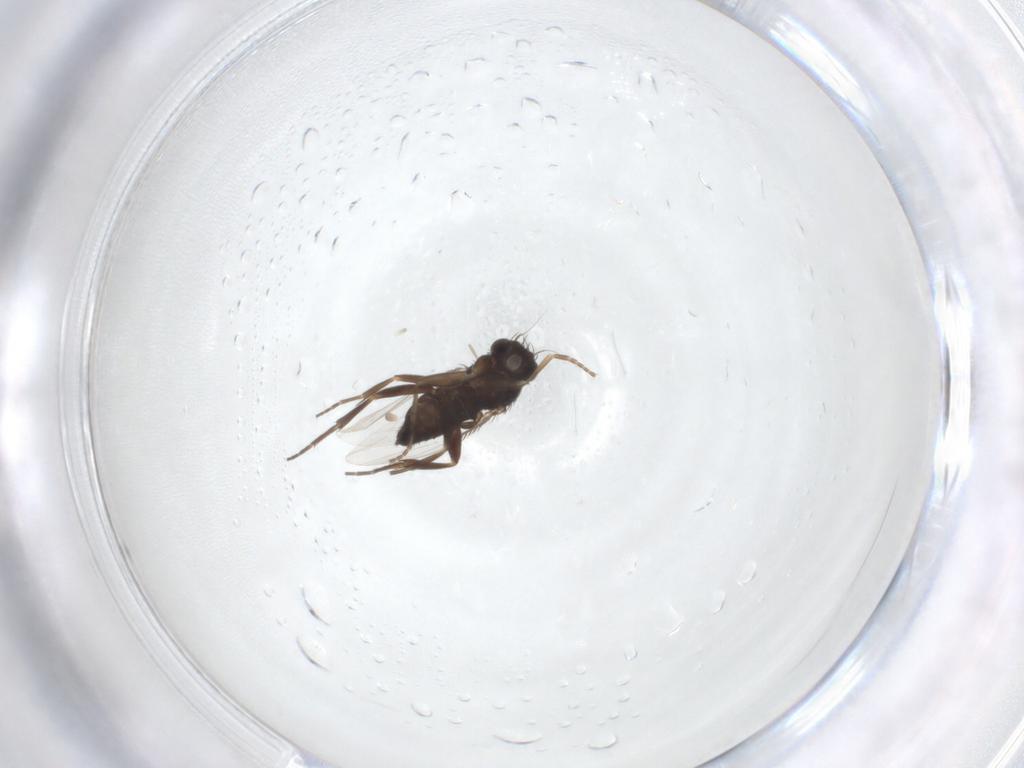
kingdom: Animalia
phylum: Arthropoda
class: Insecta
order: Diptera
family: Phoridae
